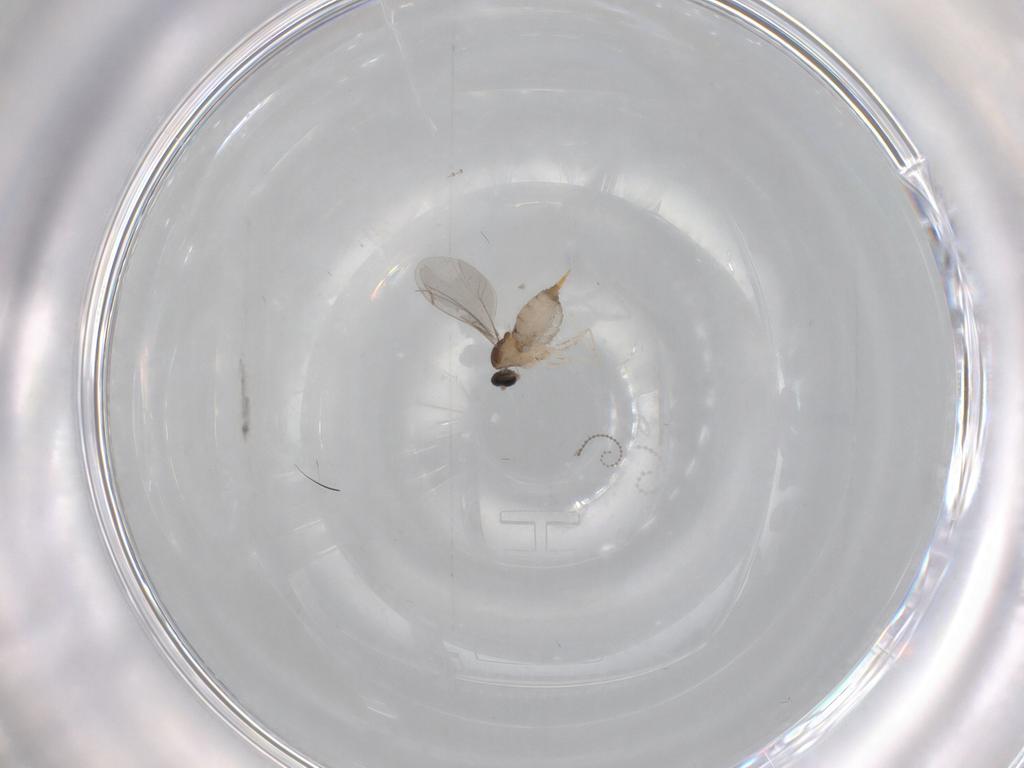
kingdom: Animalia
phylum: Arthropoda
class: Insecta
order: Diptera
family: Cecidomyiidae
